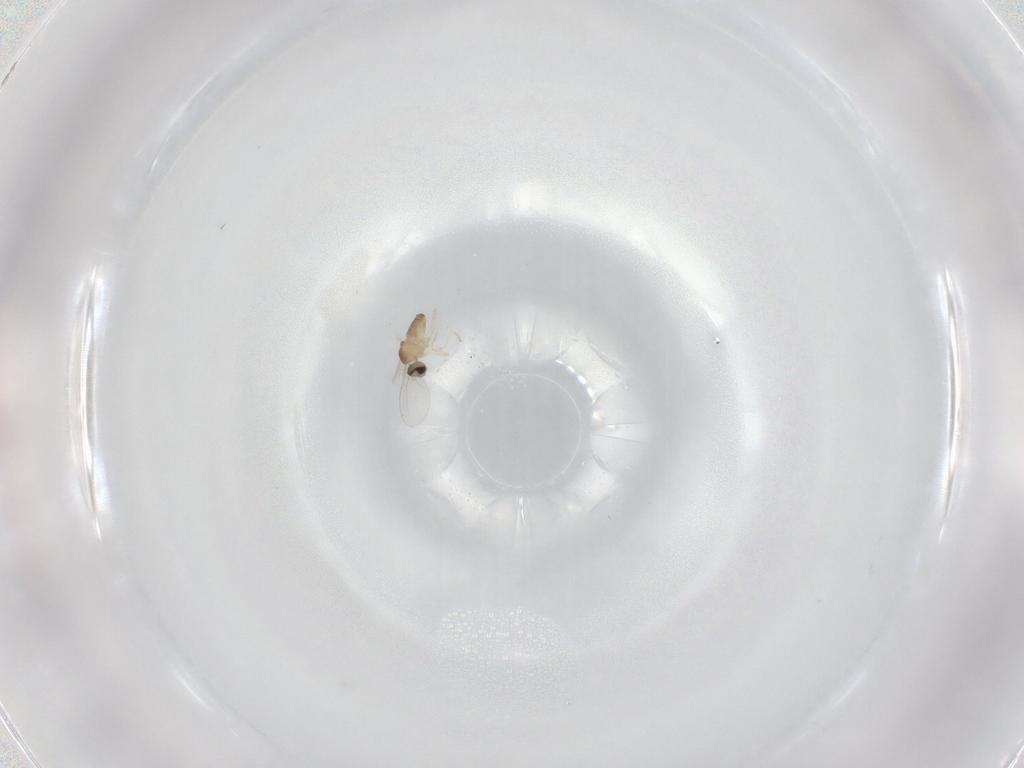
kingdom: Animalia
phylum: Arthropoda
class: Insecta
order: Diptera
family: Cecidomyiidae
